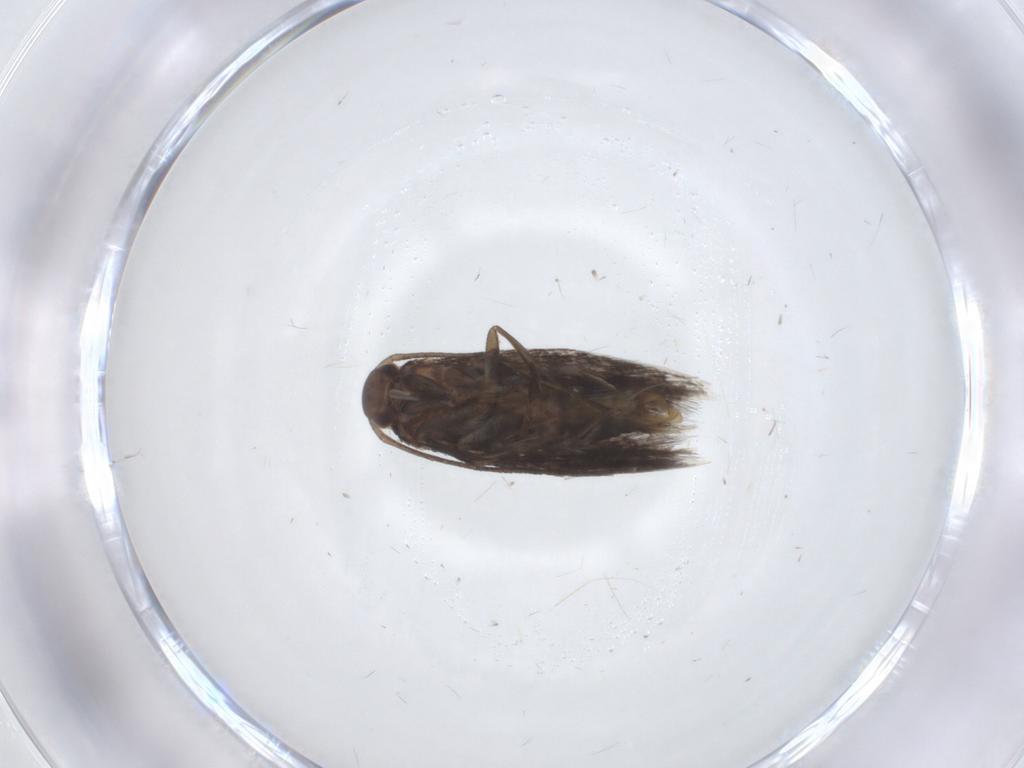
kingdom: Animalia
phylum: Arthropoda
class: Insecta
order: Lepidoptera
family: Elachistidae
